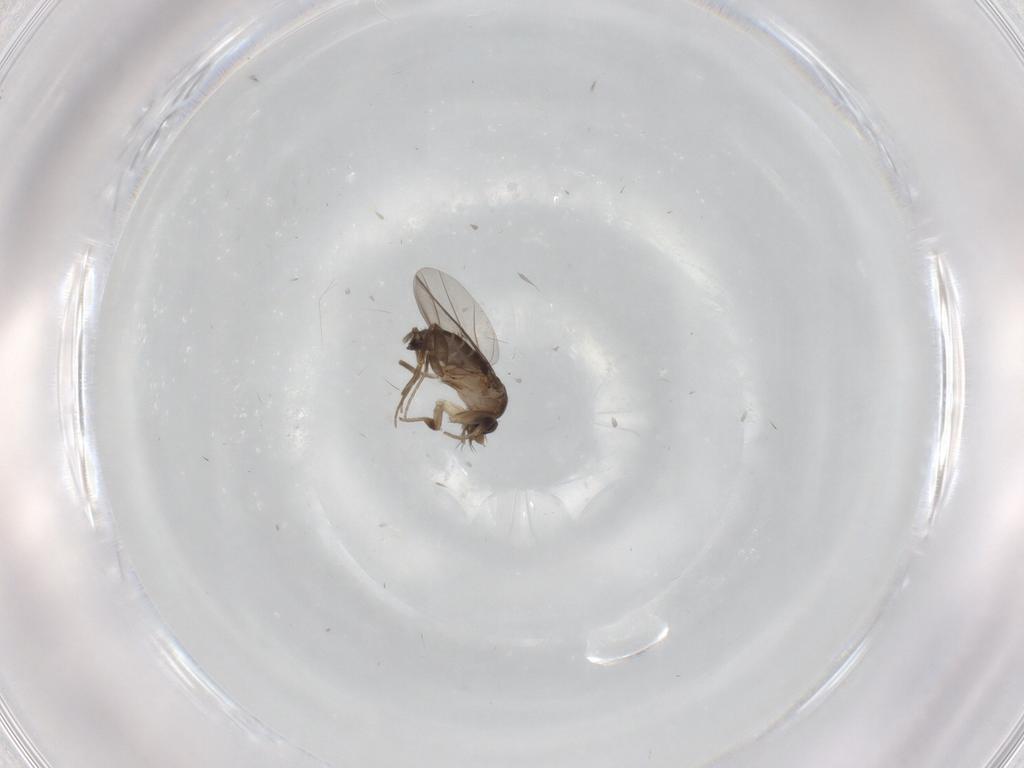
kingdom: Animalia
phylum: Arthropoda
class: Insecta
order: Diptera
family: Phoridae
